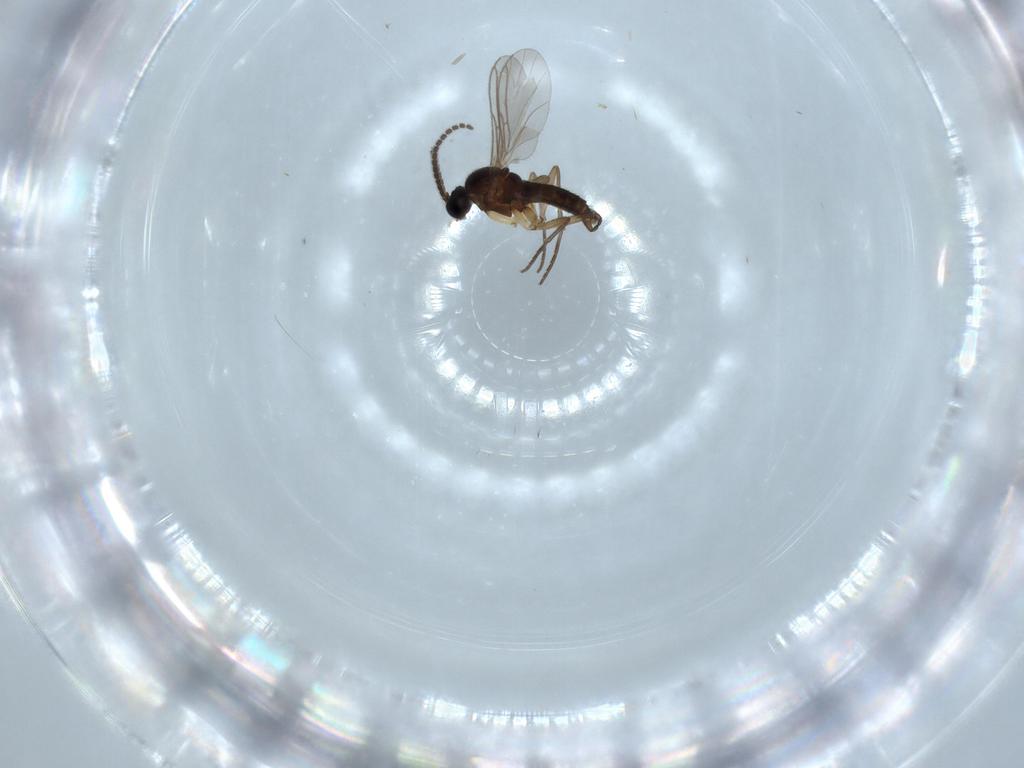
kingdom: Animalia
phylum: Arthropoda
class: Insecta
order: Diptera
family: Sciaridae
